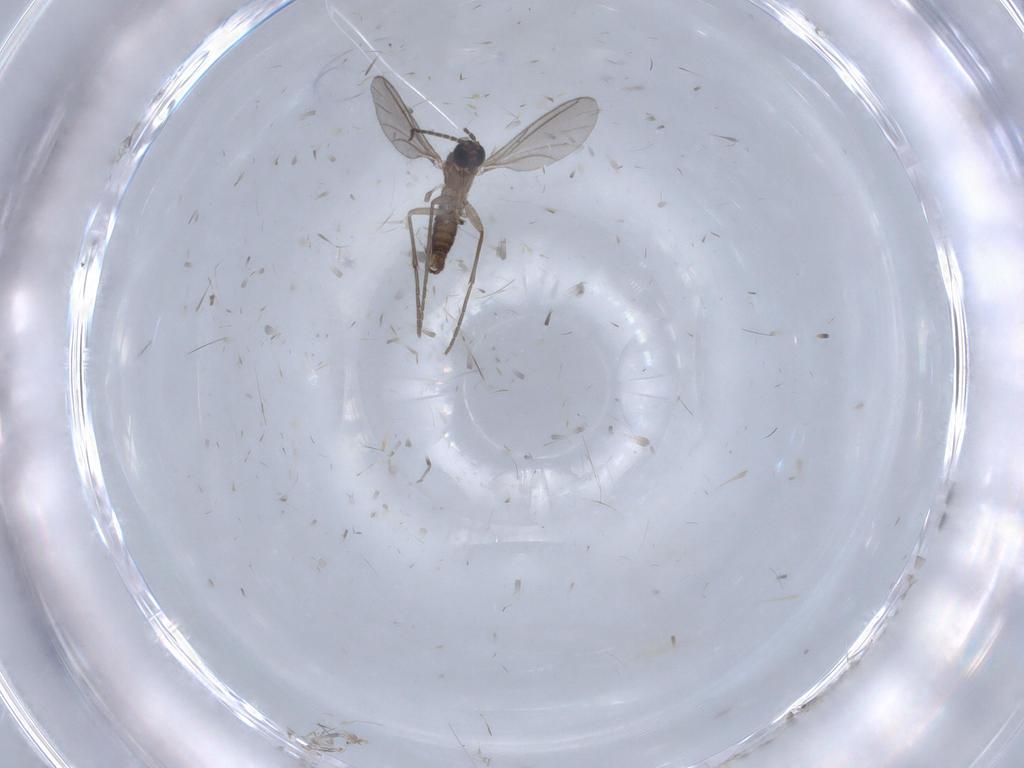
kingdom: Animalia
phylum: Arthropoda
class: Insecta
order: Diptera
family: Sciaridae
